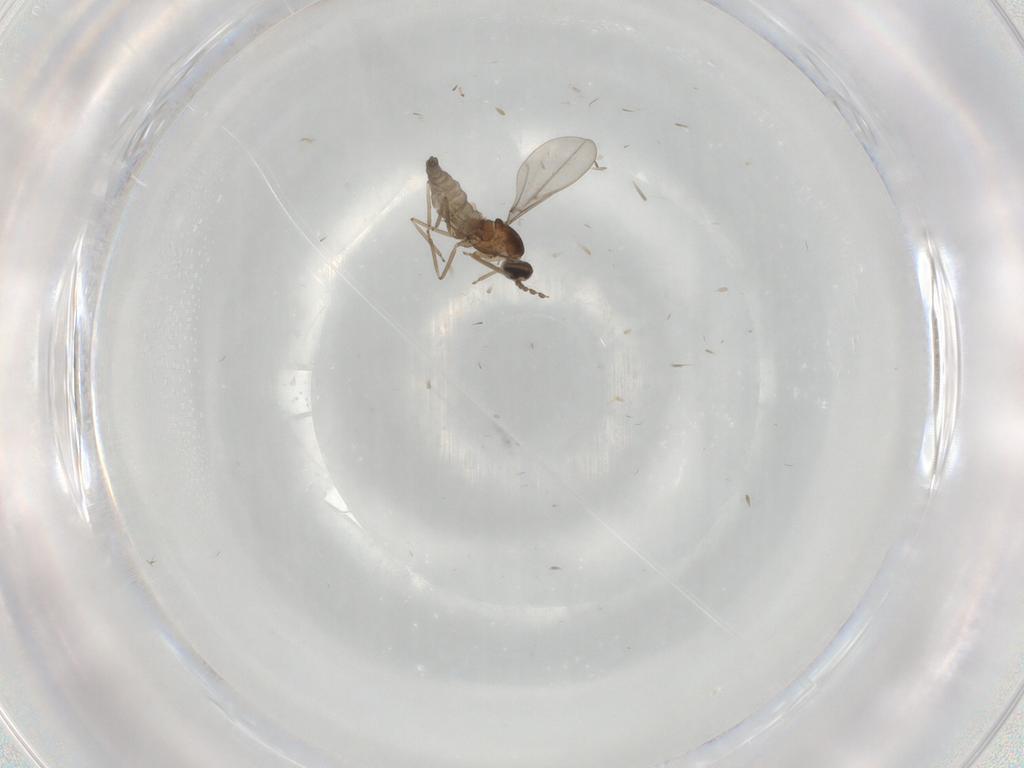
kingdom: Animalia
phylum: Arthropoda
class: Insecta
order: Diptera
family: Cecidomyiidae
